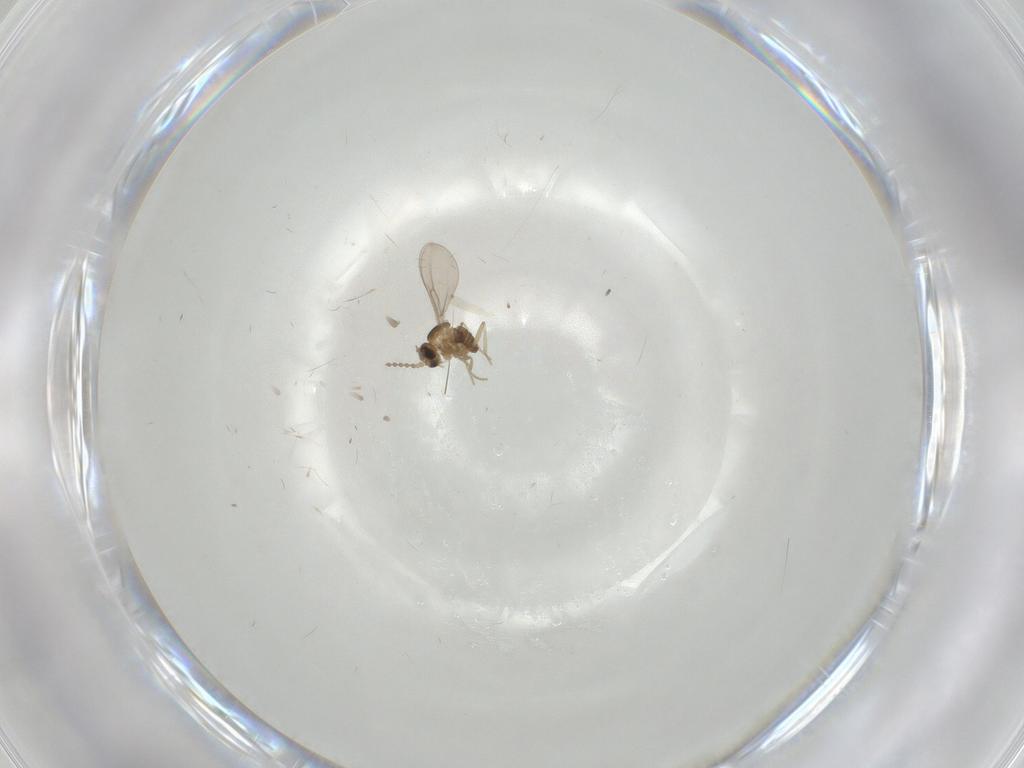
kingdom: Animalia
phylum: Arthropoda
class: Insecta
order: Diptera
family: Cecidomyiidae
